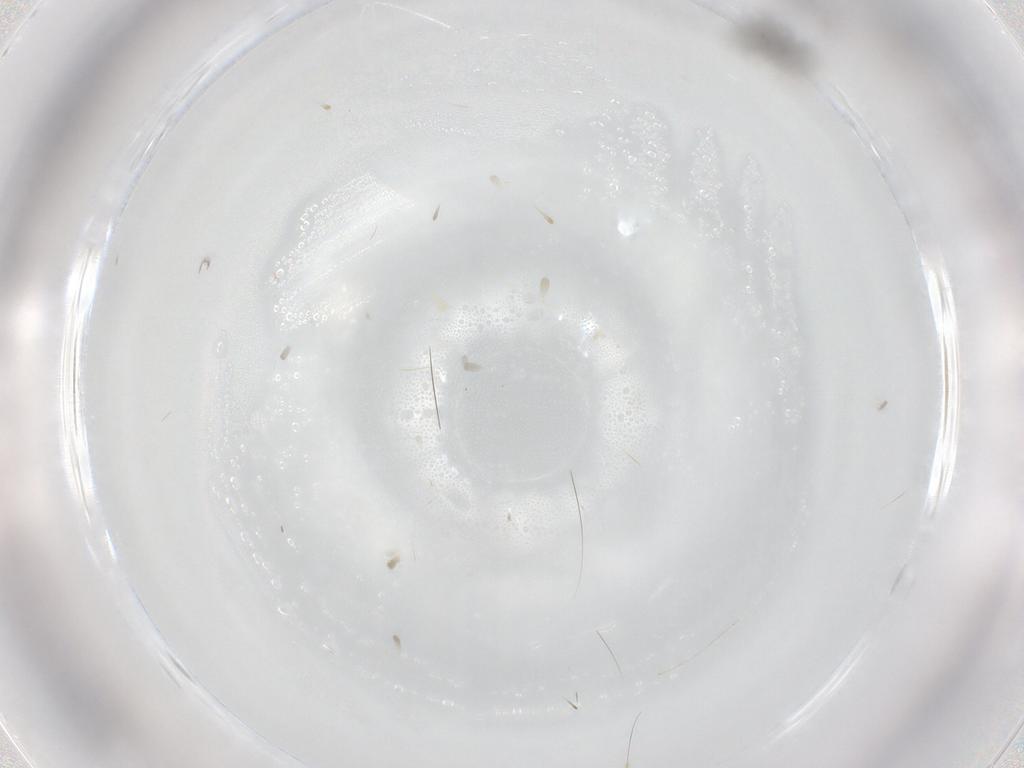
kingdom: Animalia
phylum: Arthropoda
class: Insecta
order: Diptera
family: Cecidomyiidae
